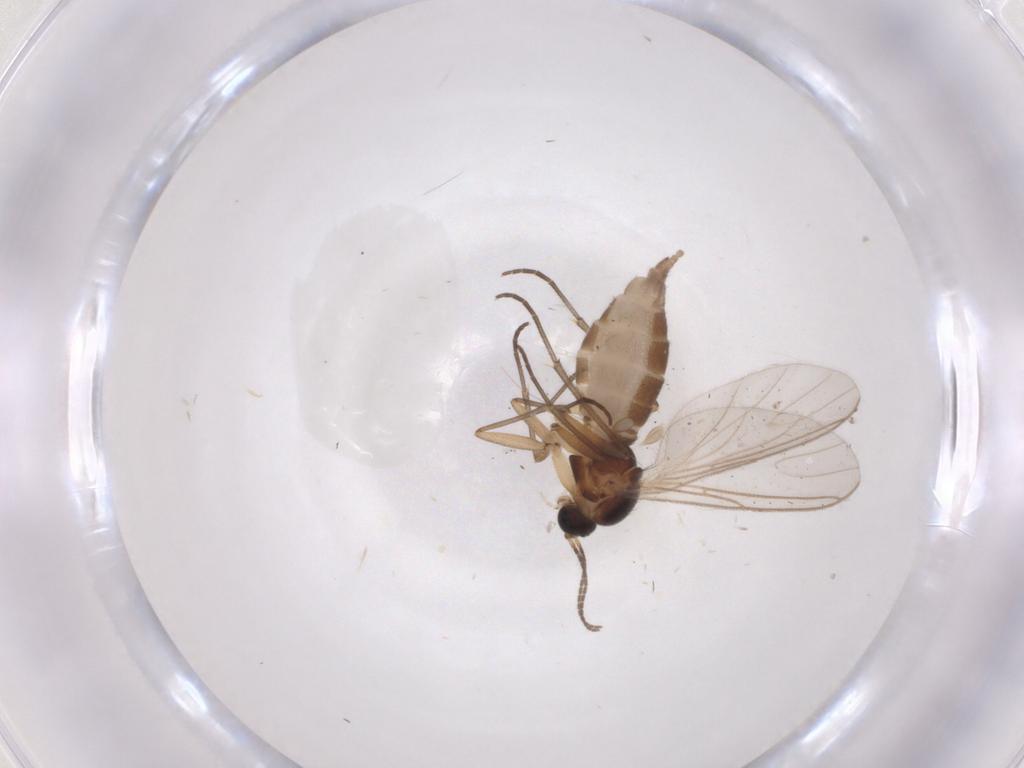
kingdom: Animalia
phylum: Arthropoda
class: Insecta
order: Diptera
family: Sciaridae
